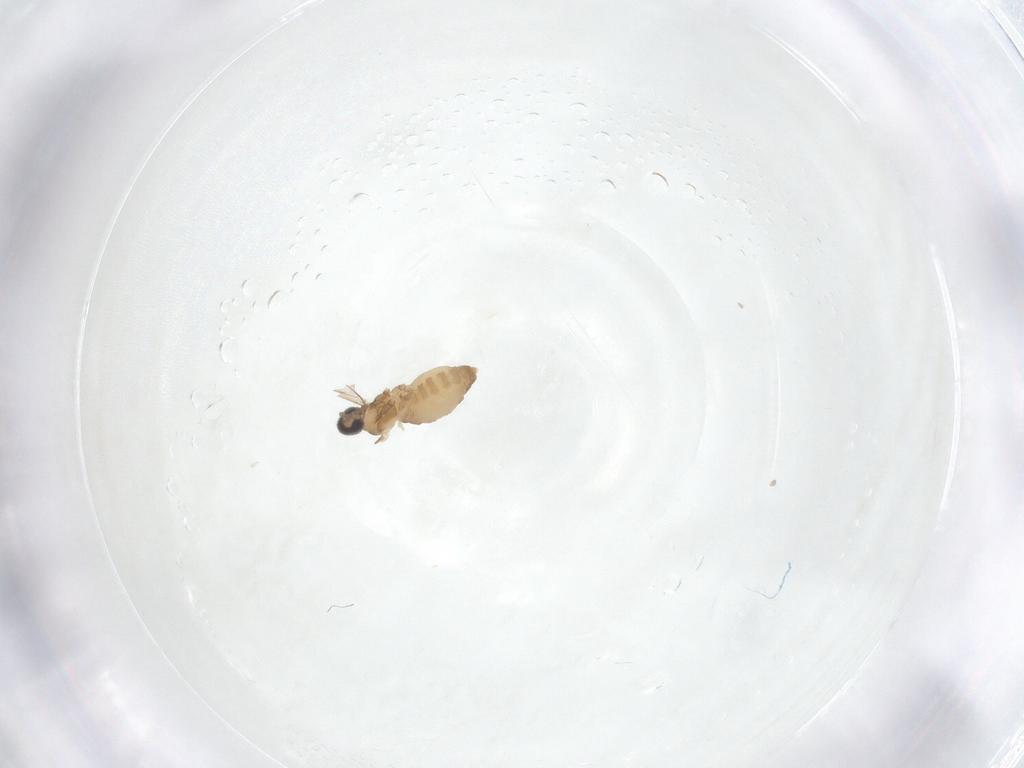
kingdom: Animalia
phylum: Arthropoda
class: Insecta
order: Diptera
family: Cecidomyiidae
